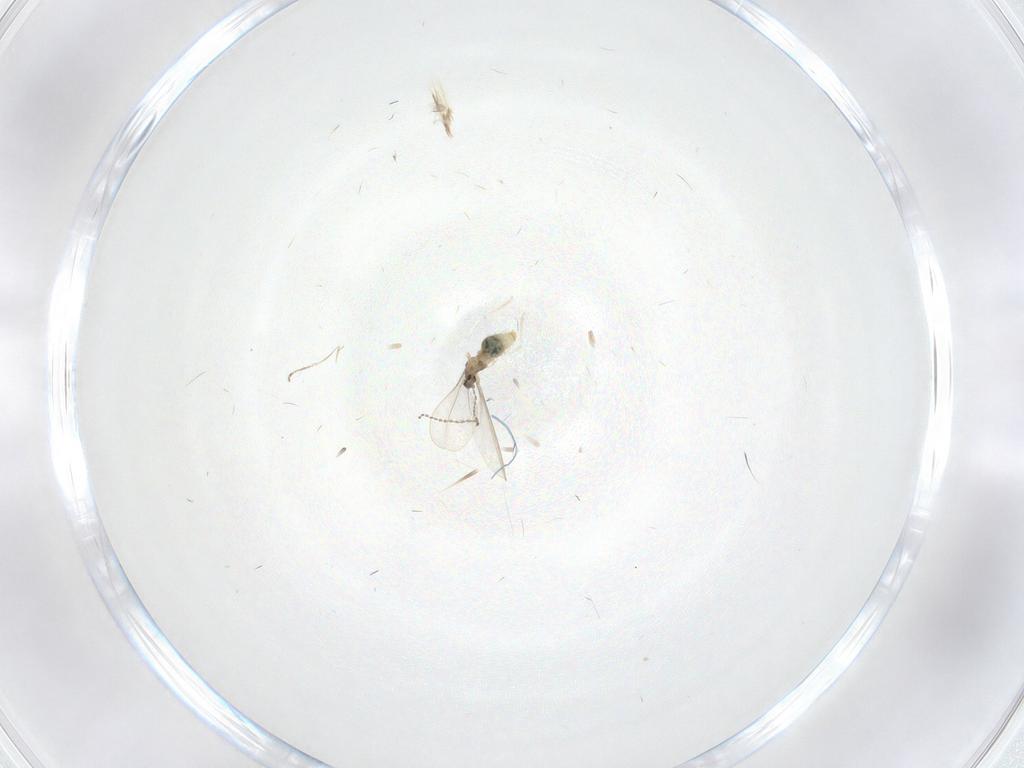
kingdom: Animalia
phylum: Arthropoda
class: Insecta
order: Diptera
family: Cecidomyiidae
